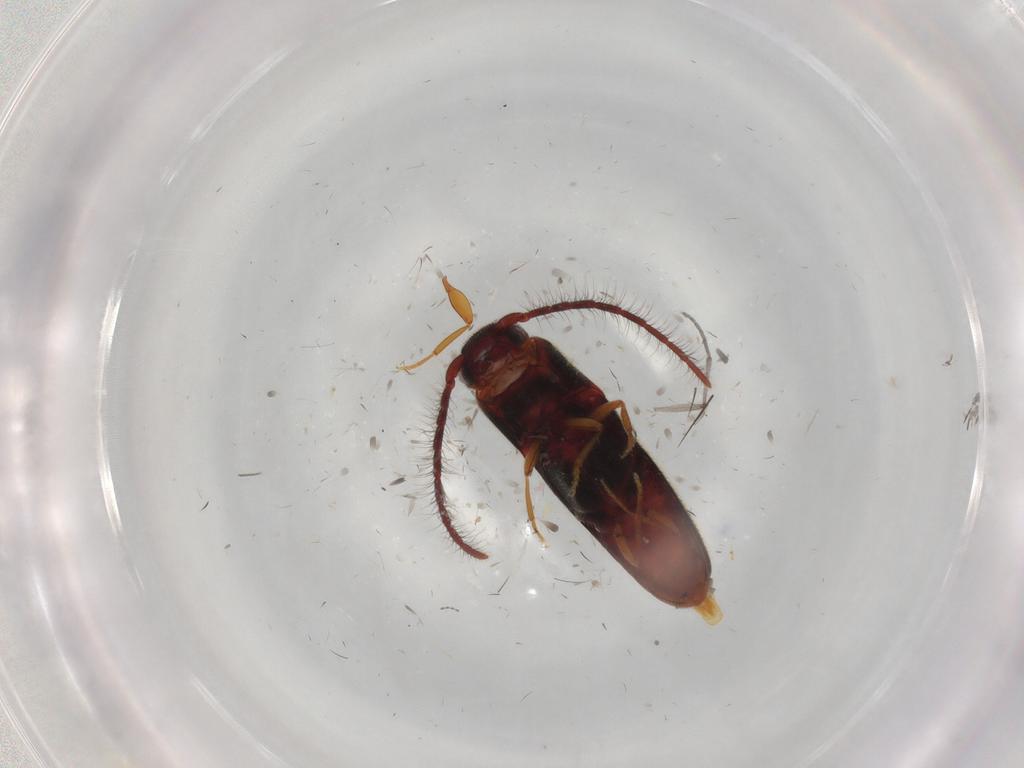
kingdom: Animalia
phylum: Arthropoda
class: Insecta
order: Coleoptera
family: Eucnemidae
